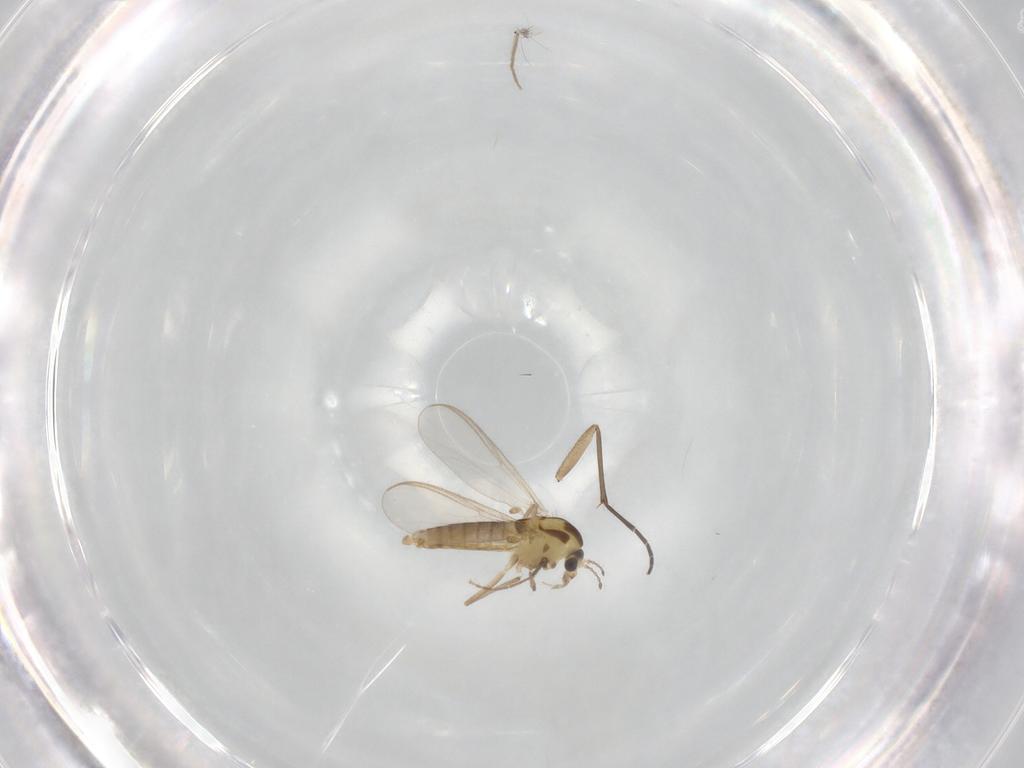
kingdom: Animalia
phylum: Arthropoda
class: Insecta
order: Diptera
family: Chironomidae
